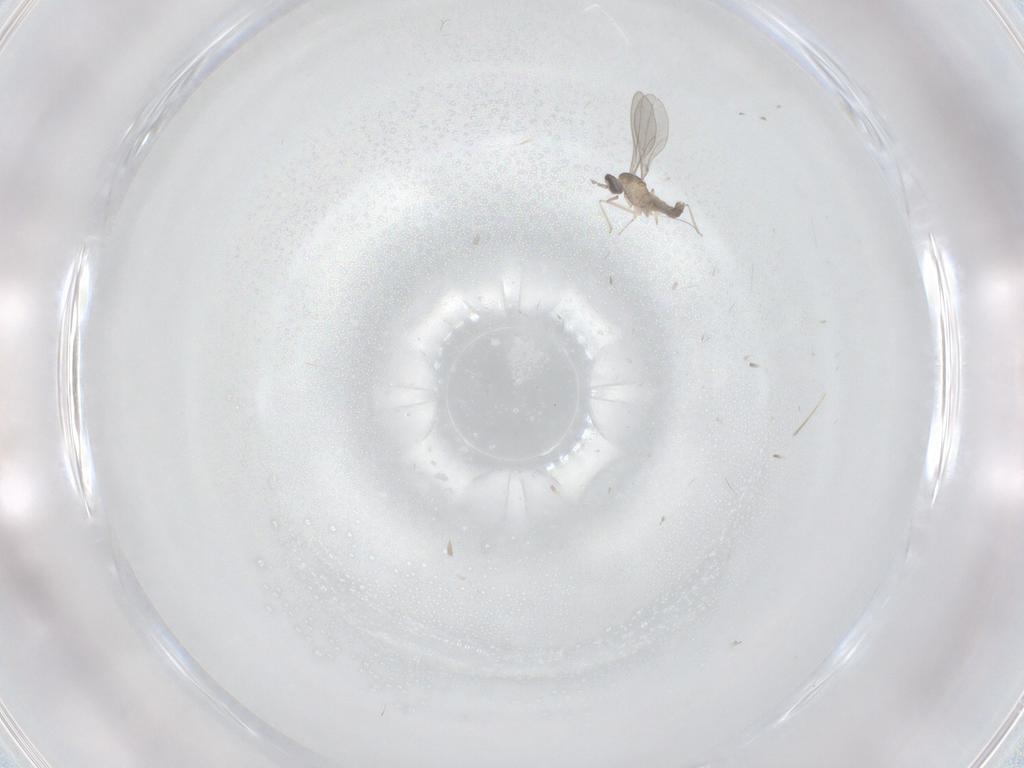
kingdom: Animalia
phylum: Arthropoda
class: Insecta
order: Diptera
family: Cecidomyiidae
